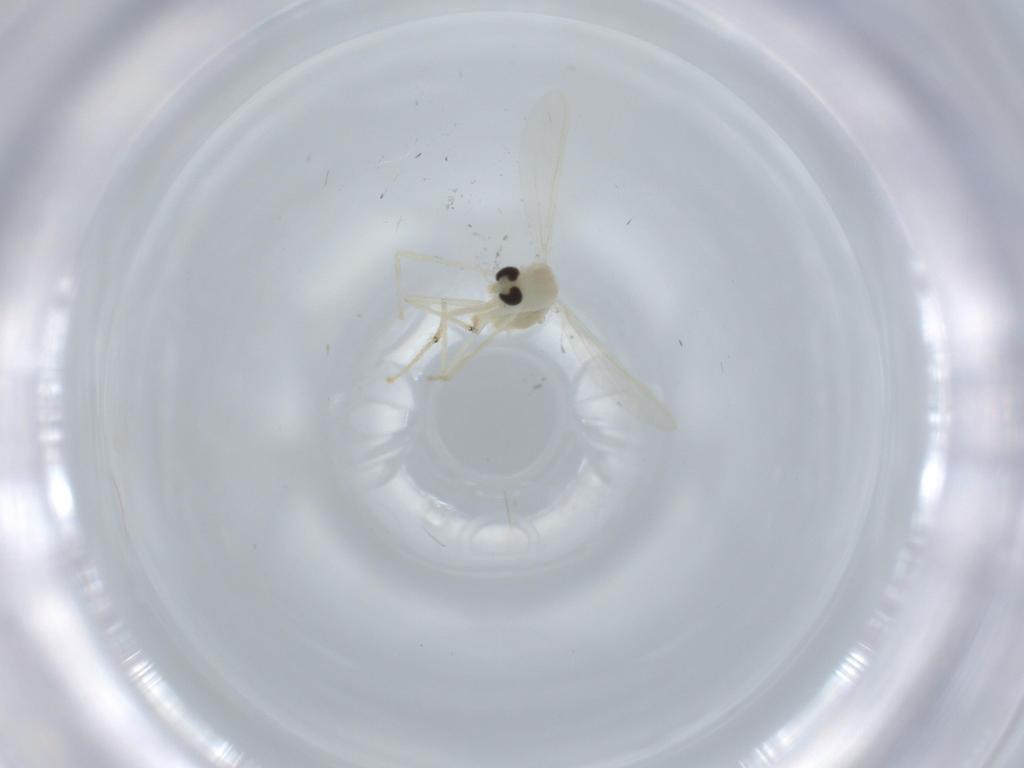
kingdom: Animalia
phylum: Arthropoda
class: Insecta
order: Diptera
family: Chironomidae
